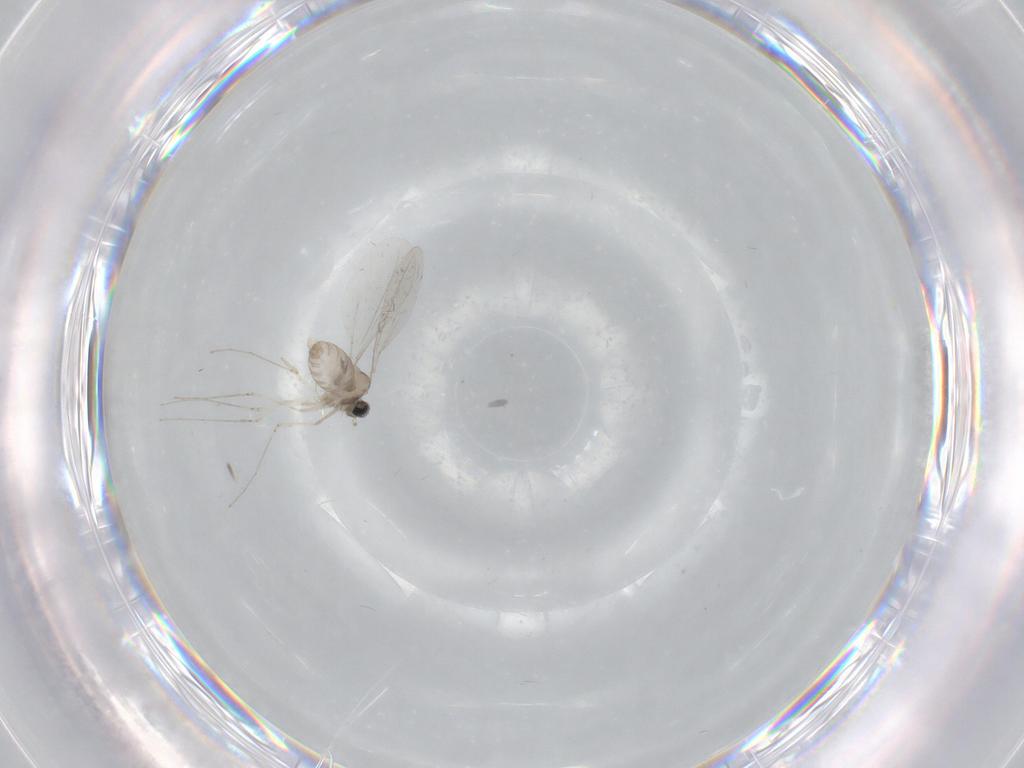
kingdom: Animalia
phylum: Arthropoda
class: Insecta
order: Diptera
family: Cecidomyiidae
